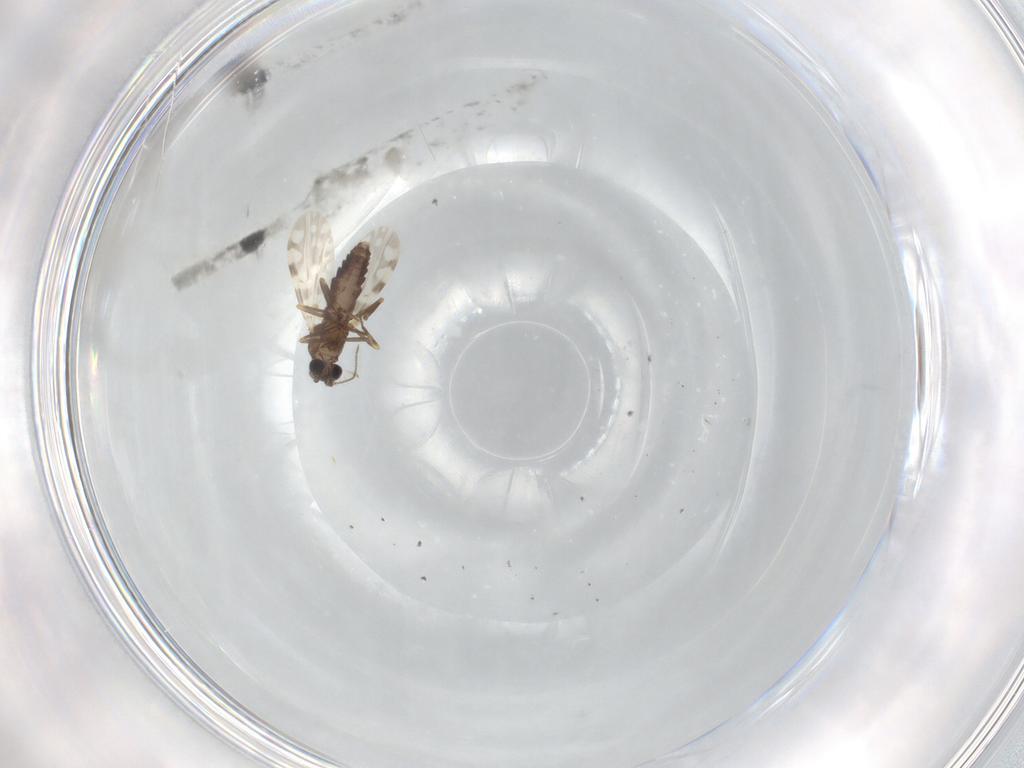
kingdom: Animalia
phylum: Arthropoda
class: Insecta
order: Diptera
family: Ceratopogonidae
